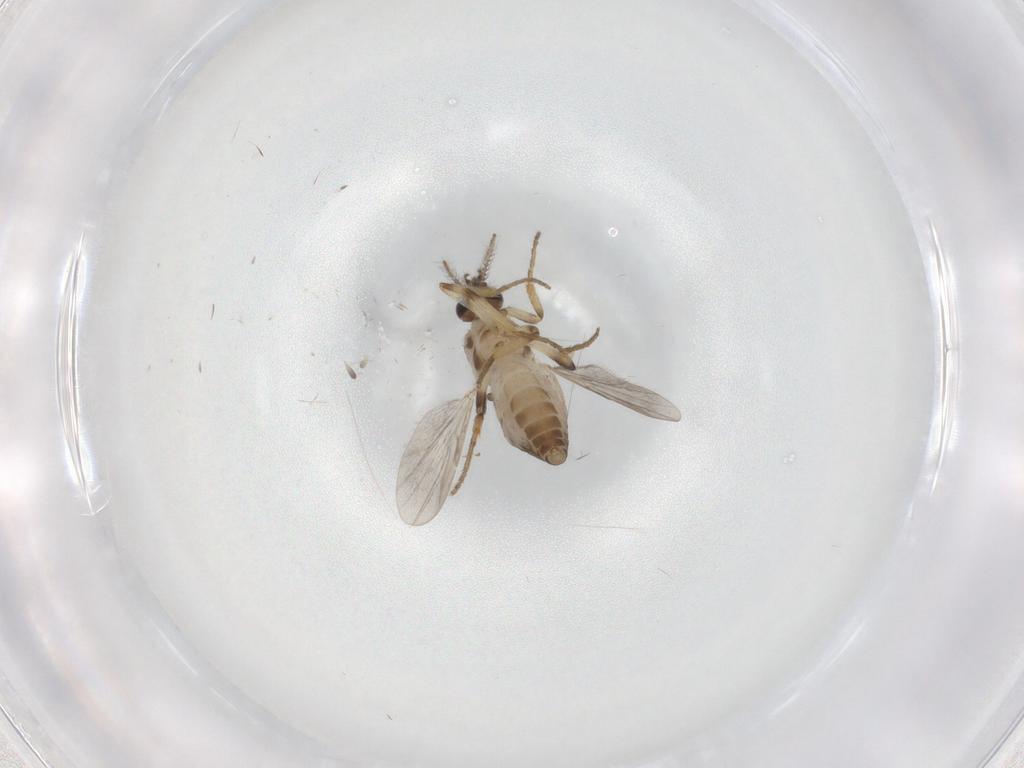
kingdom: Animalia
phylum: Arthropoda
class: Insecta
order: Diptera
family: Ceratopogonidae
